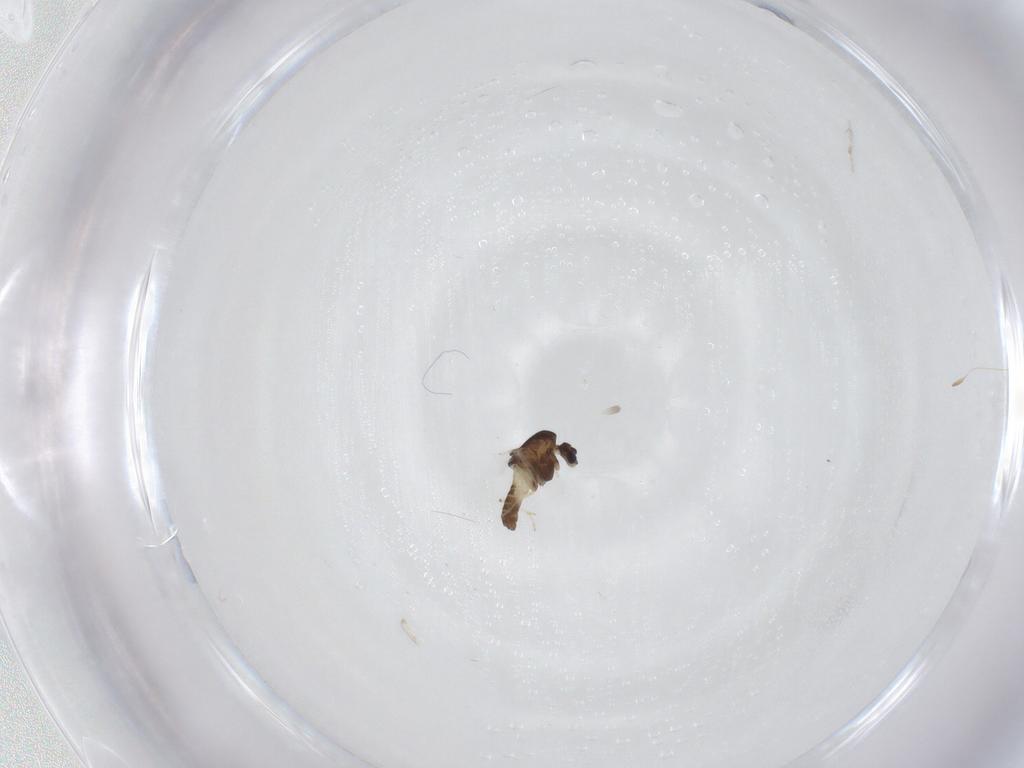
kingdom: Animalia
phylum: Arthropoda
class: Insecta
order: Diptera
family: Chironomidae
